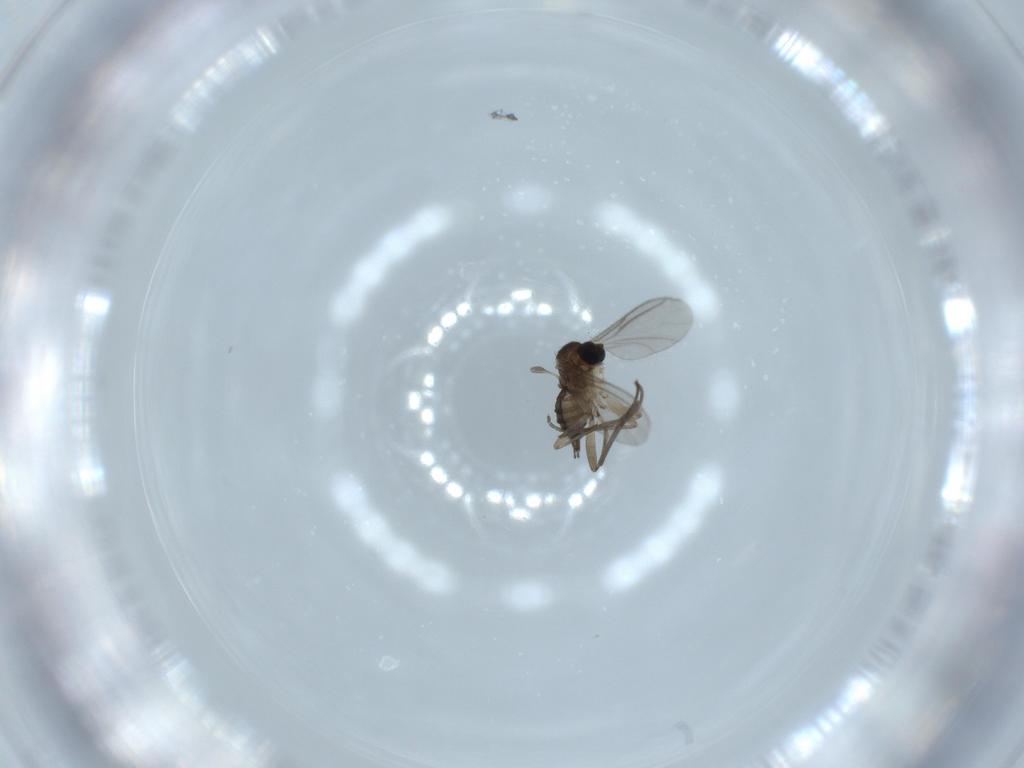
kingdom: Animalia
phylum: Arthropoda
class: Insecta
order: Diptera
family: Sciaridae
